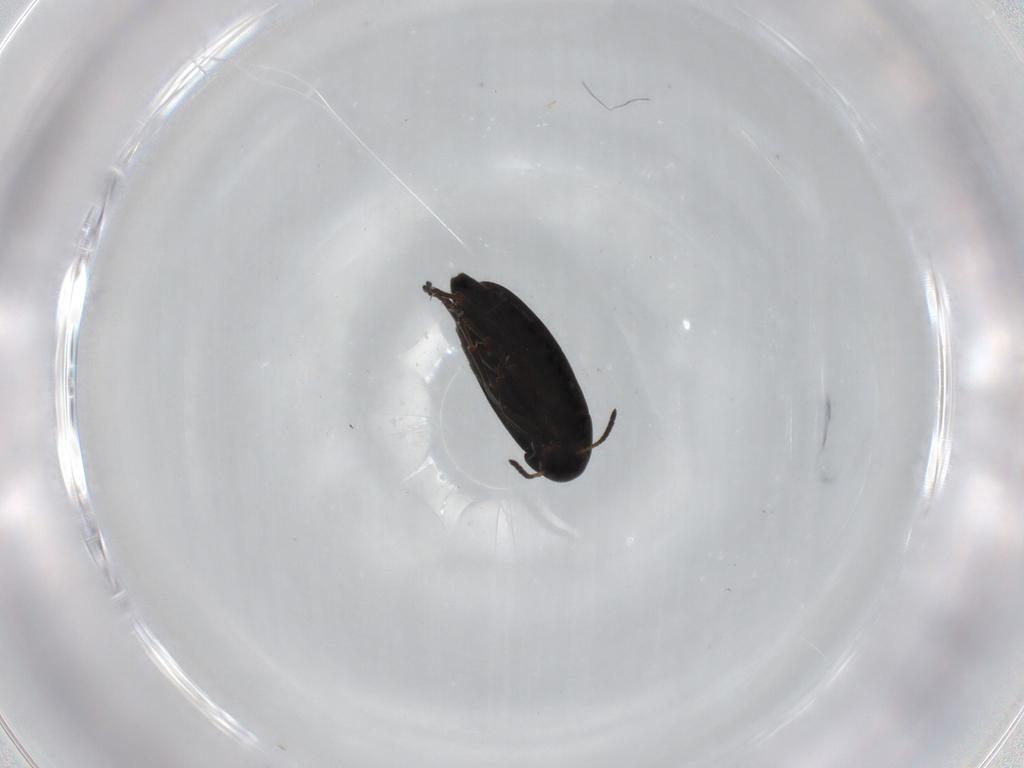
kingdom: Animalia
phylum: Arthropoda
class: Insecta
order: Coleoptera
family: Scraptiidae
